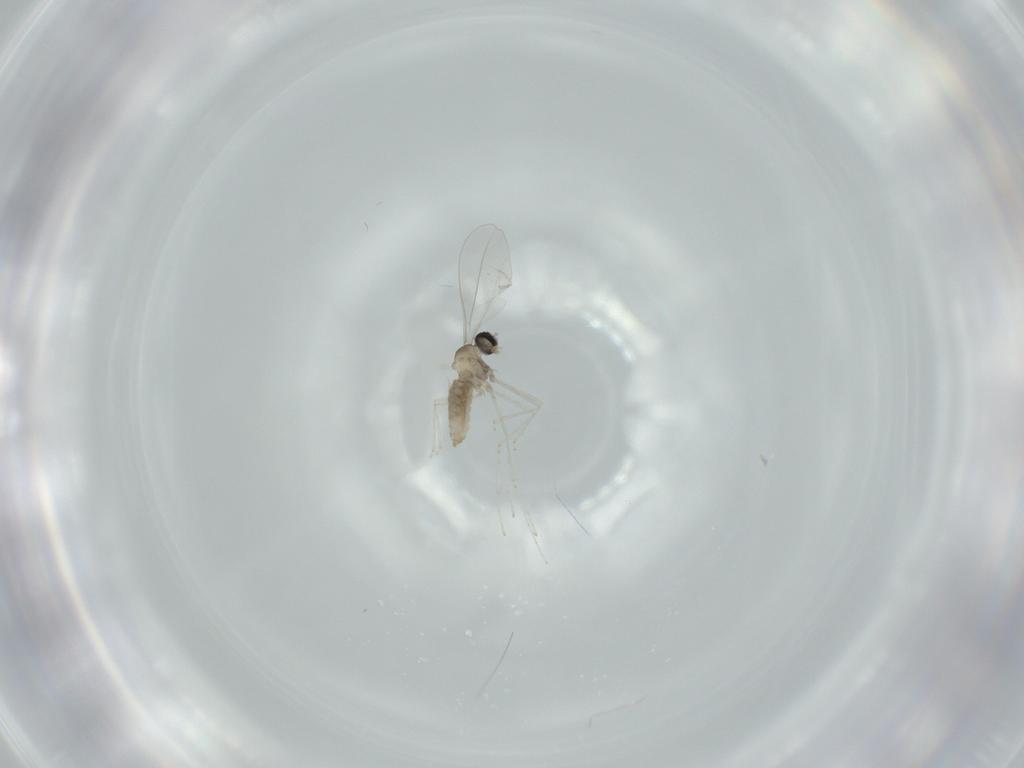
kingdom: Animalia
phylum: Arthropoda
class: Insecta
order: Diptera
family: Cecidomyiidae
